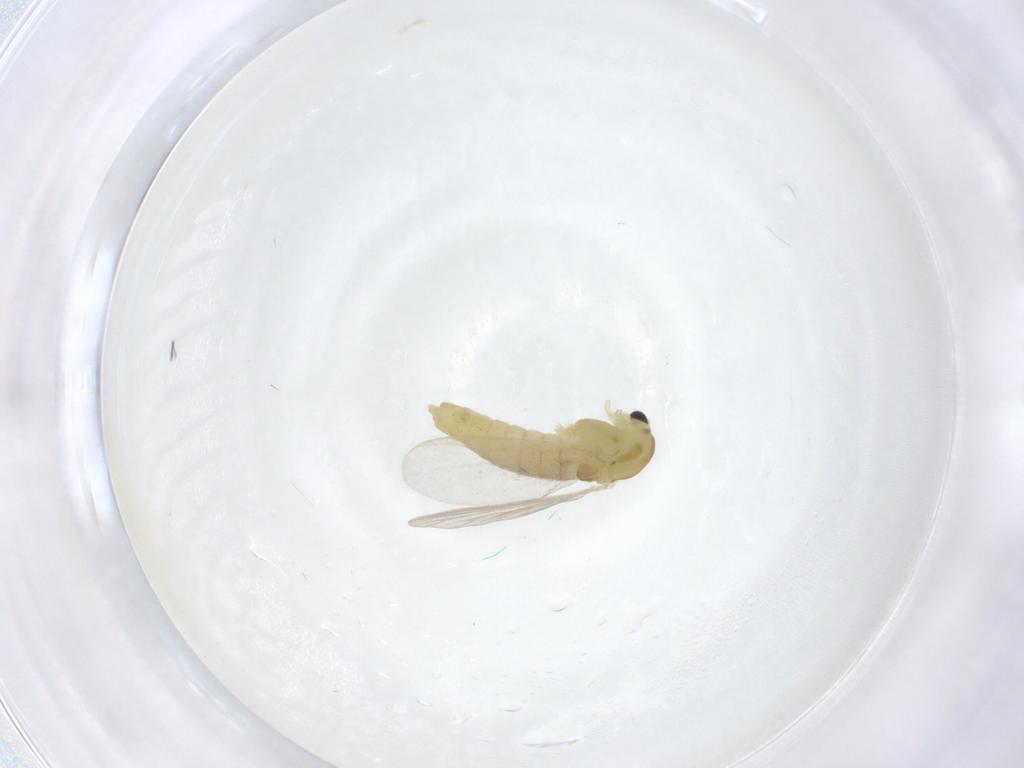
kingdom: Animalia
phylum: Arthropoda
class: Insecta
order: Diptera
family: Chironomidae
